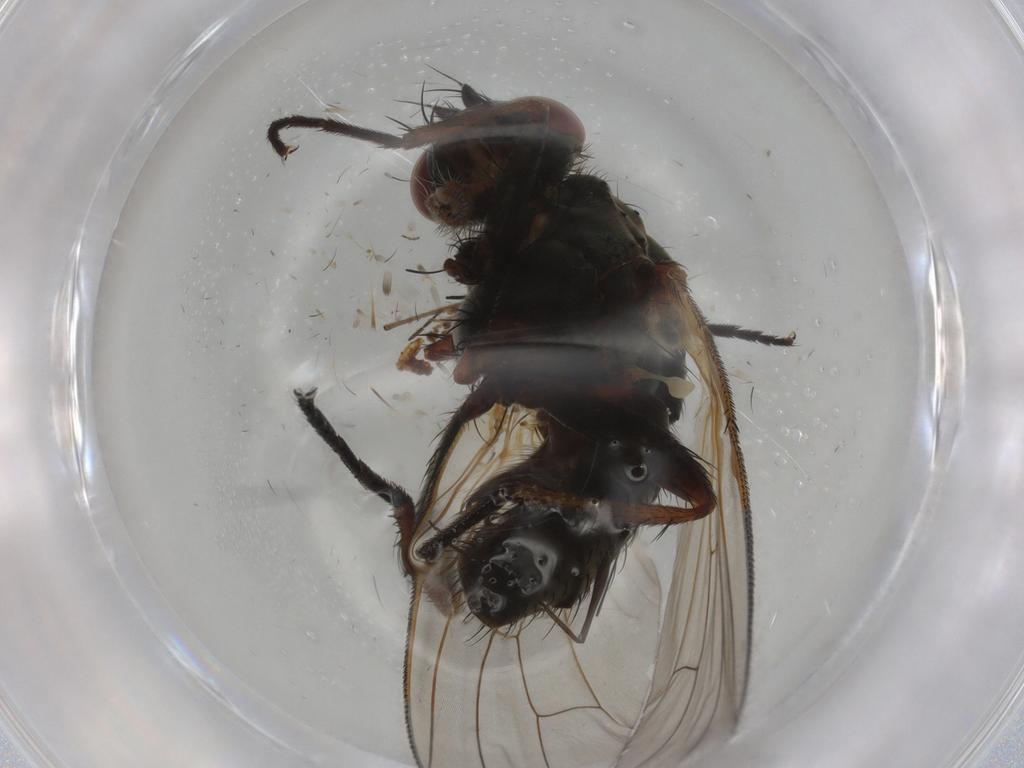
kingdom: Animalia
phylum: Arthropoda
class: Insecta
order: Diptera
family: Anthomyiidae
